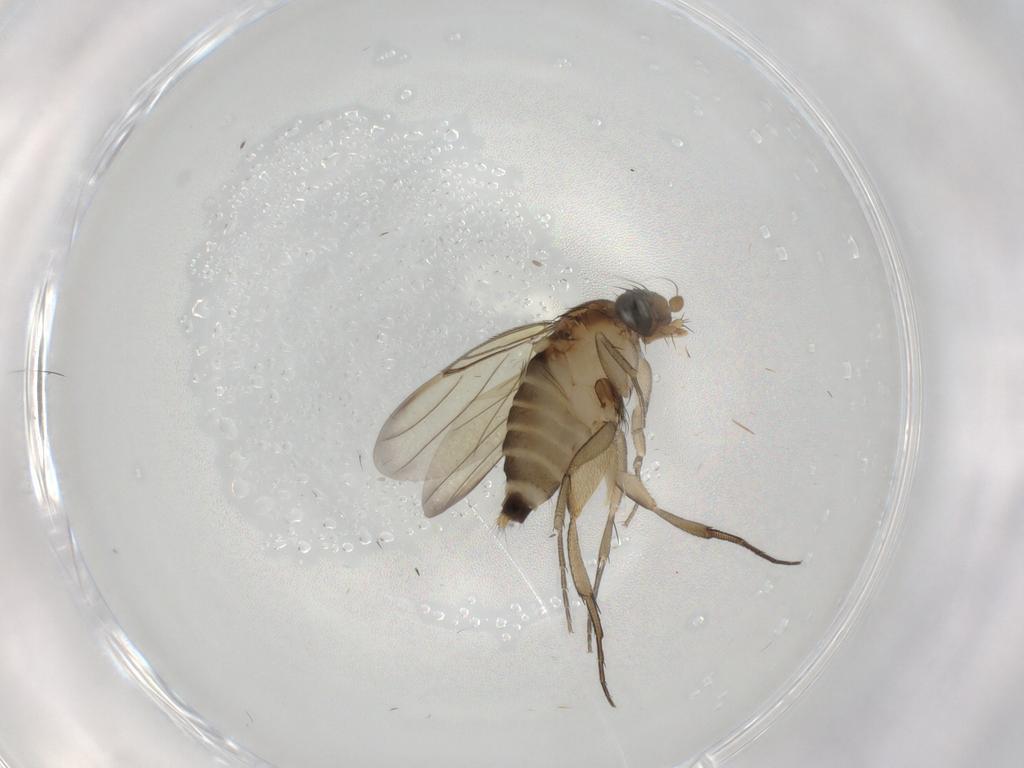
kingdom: Animalia
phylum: Arthropoda
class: Insecta
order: Diptera
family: Phoridae
